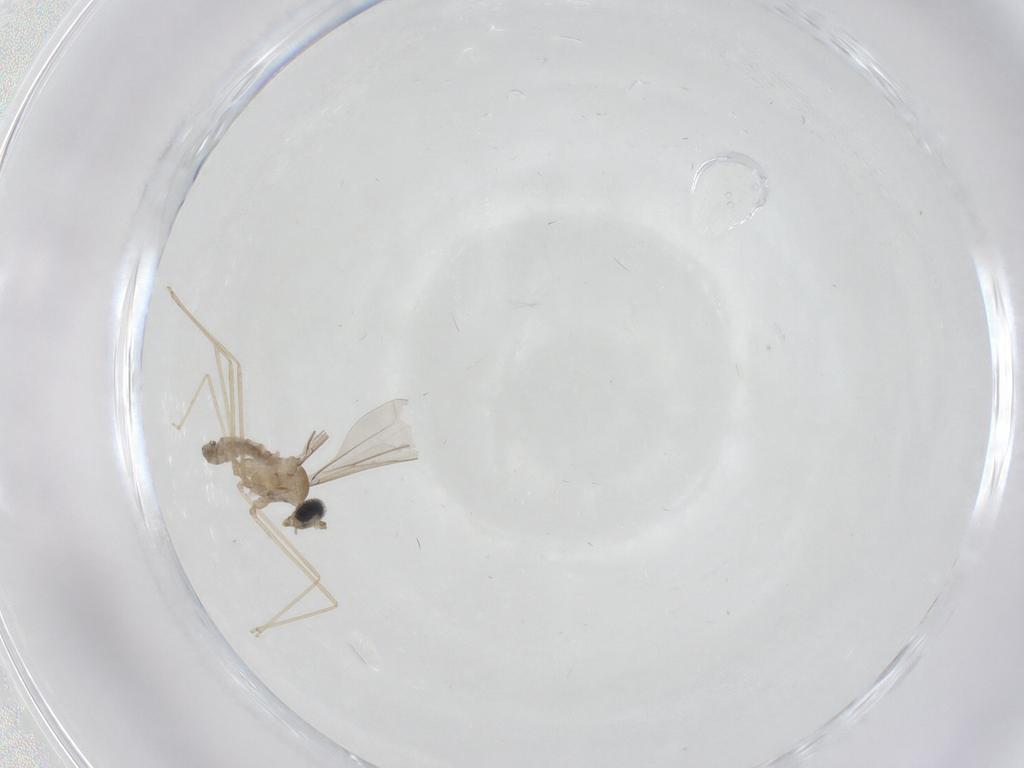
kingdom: Animalia
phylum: Arthropoda
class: Insecta
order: Diptera
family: Cecidomyiidae
